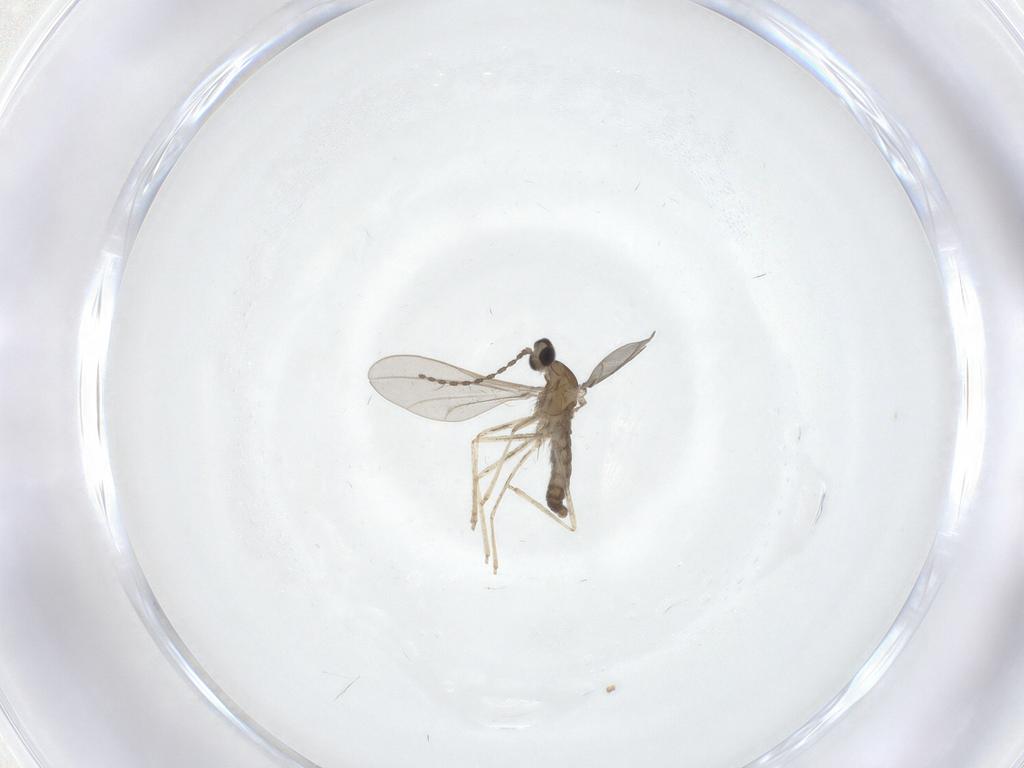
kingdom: Animalia
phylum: Arthropoda
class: Insecta
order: Diptera
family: Cecidomyiidae
